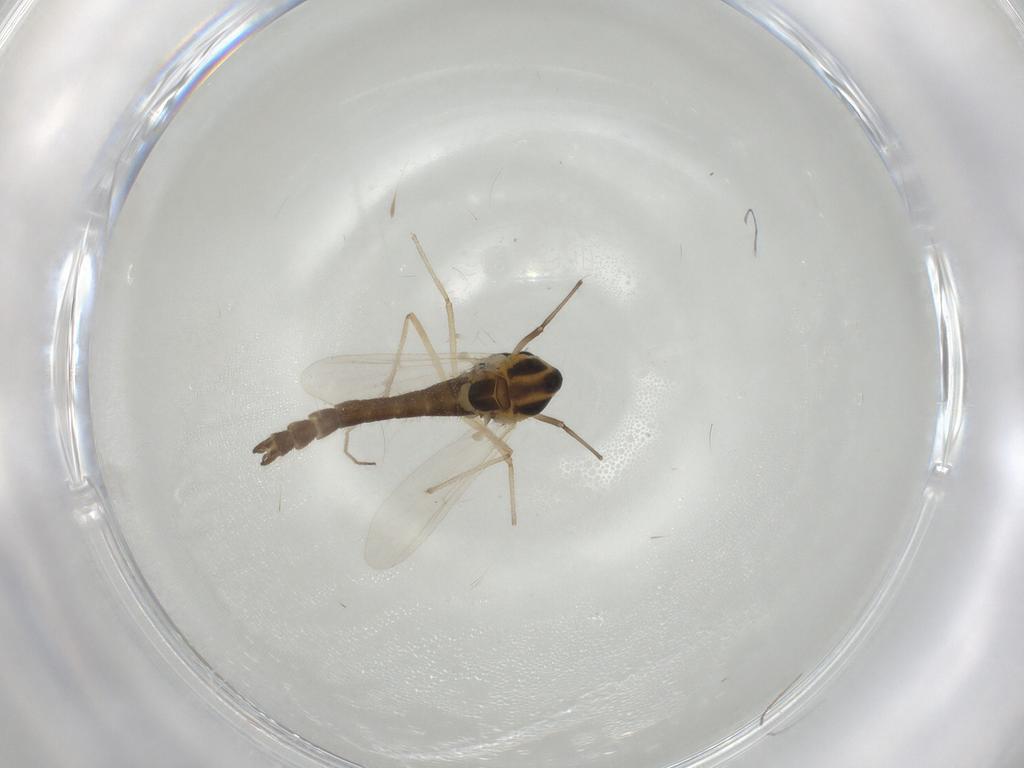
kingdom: Animalia
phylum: Arthropoda
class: Insecta
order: Diptera
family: Chironomidae
